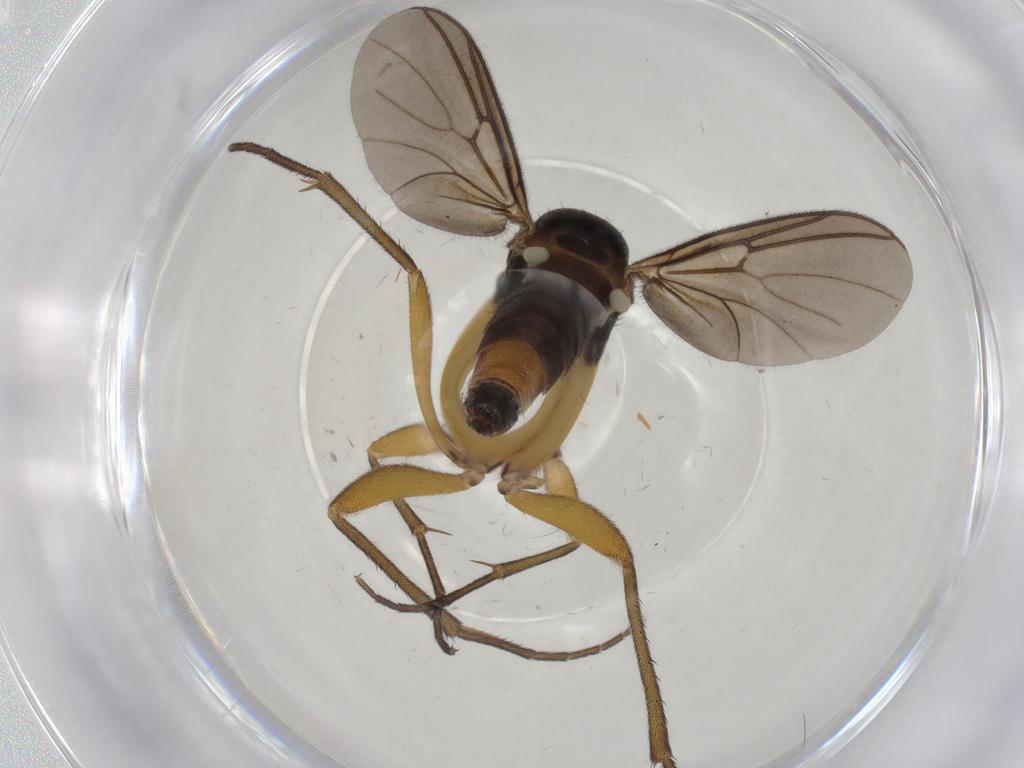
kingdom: Animalia
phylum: Arthropoda
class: Insecta
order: Diptera
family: Mycetophilidae
